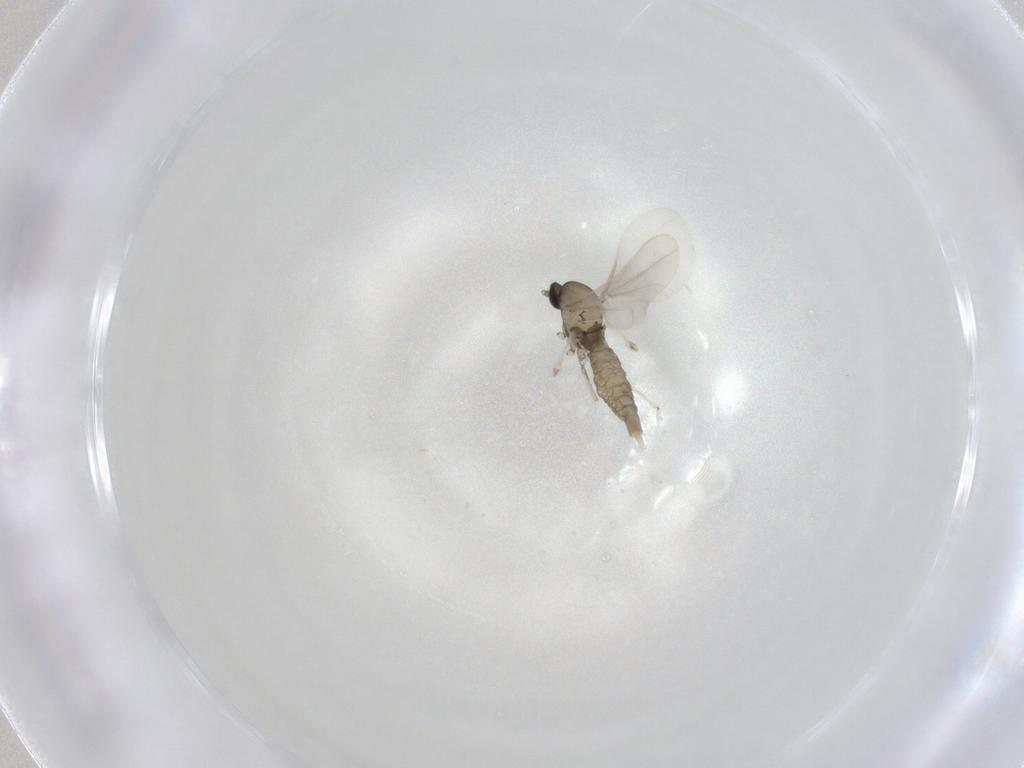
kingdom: Animalia
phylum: Arthropoda
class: Insecta
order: Diptera
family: Cecidomyiidae
